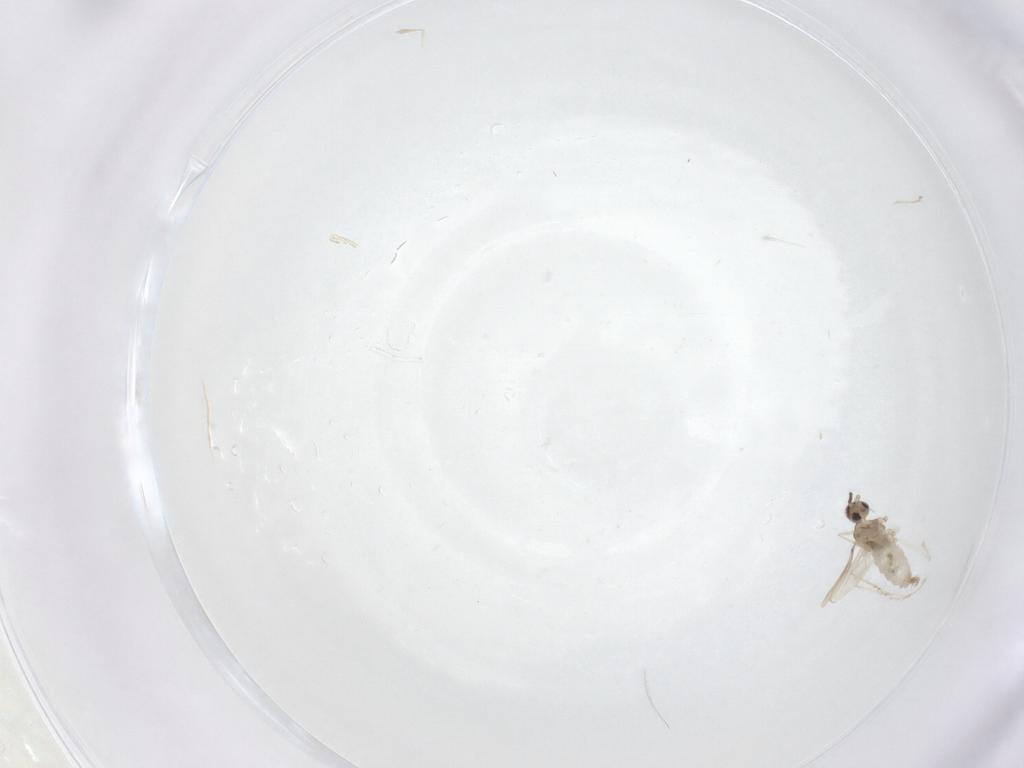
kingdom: Animalia
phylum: Arthropoda
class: Insecta
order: Diptera
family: Cecidomyiidae
